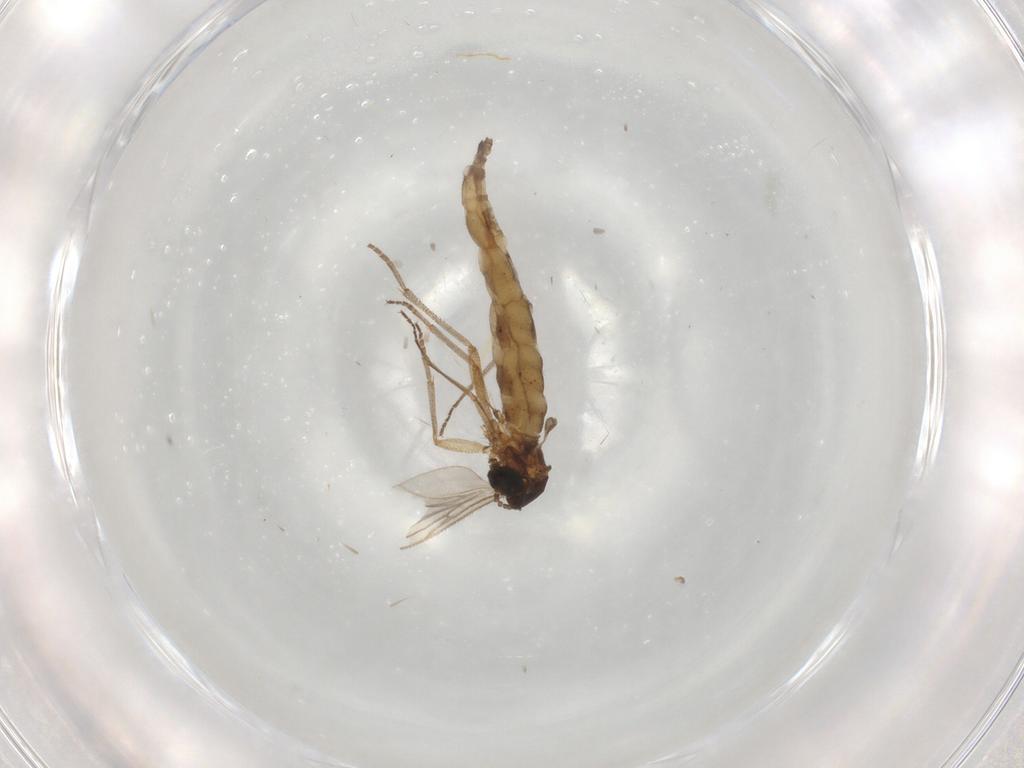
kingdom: Animalia
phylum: Arthropoda
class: Insecta
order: Diptera
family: Sciaridae
